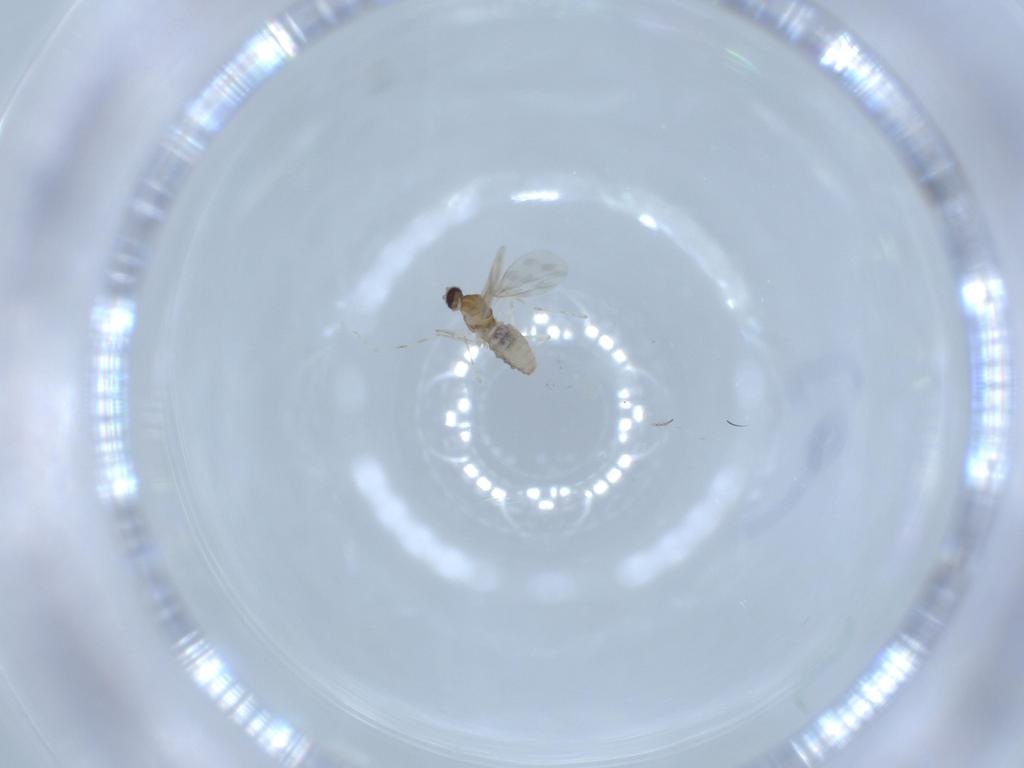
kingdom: Animalia
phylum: Arthropoda
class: Insecta
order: Diptera
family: Cecidomyiidae
